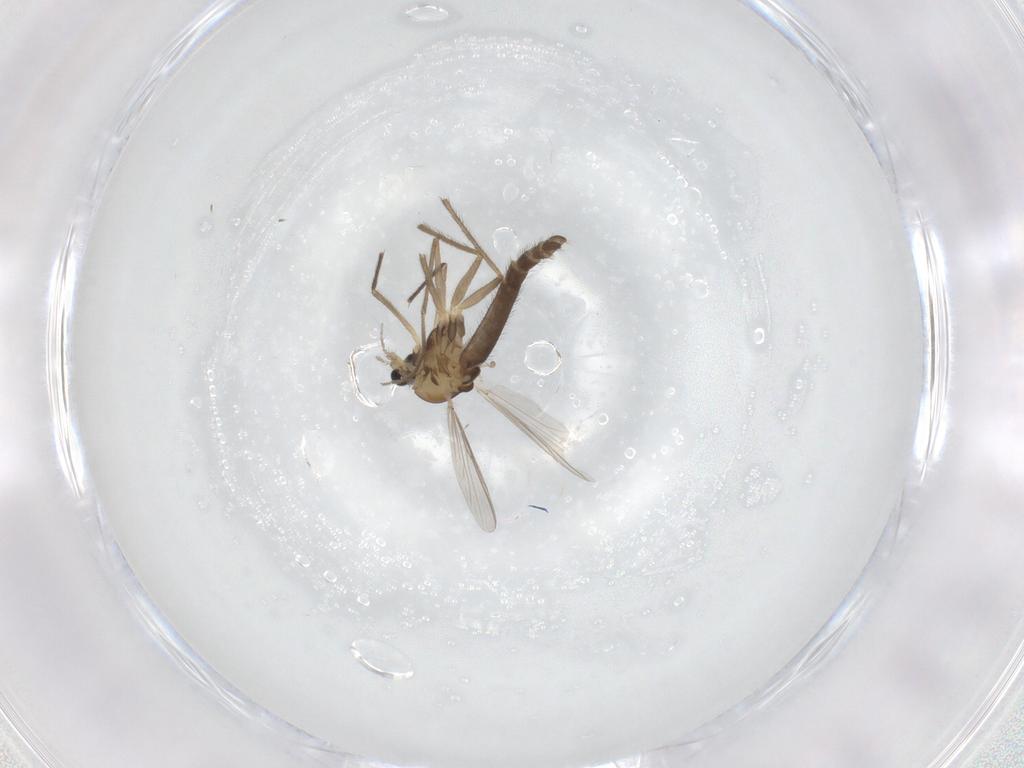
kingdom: Animalia
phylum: Arthropoda
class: Insecta
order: Diptera
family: Chironomidae
